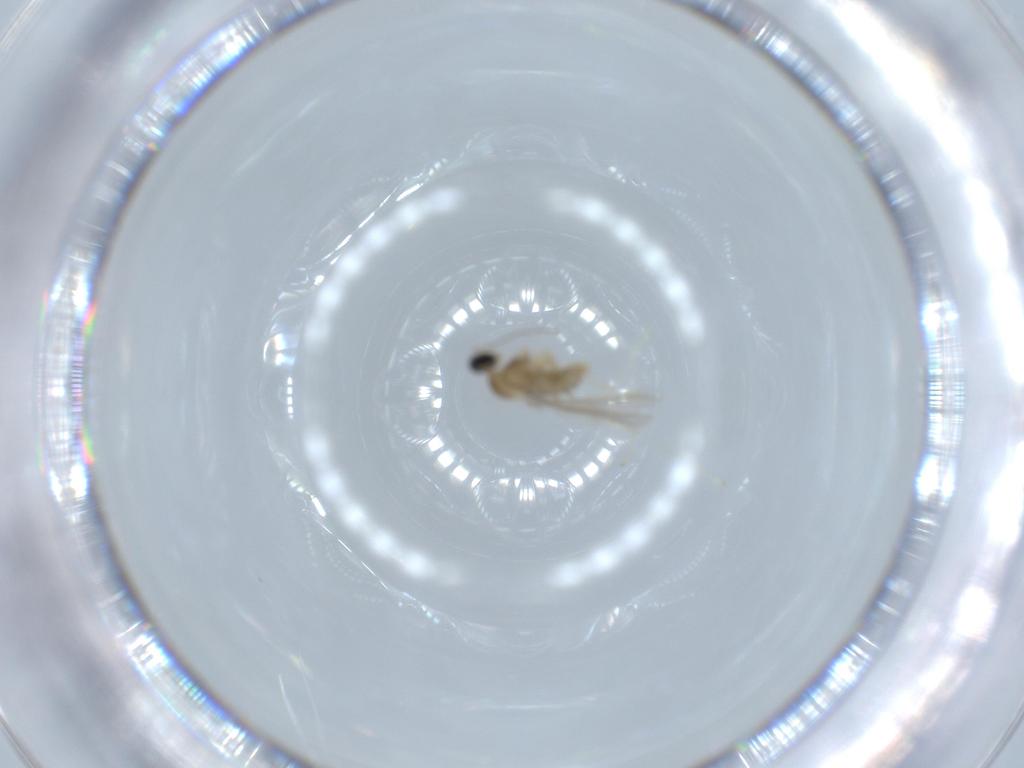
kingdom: Animalia
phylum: Arthropoda
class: Insecta
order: Diptera
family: Cecidomyiidae
